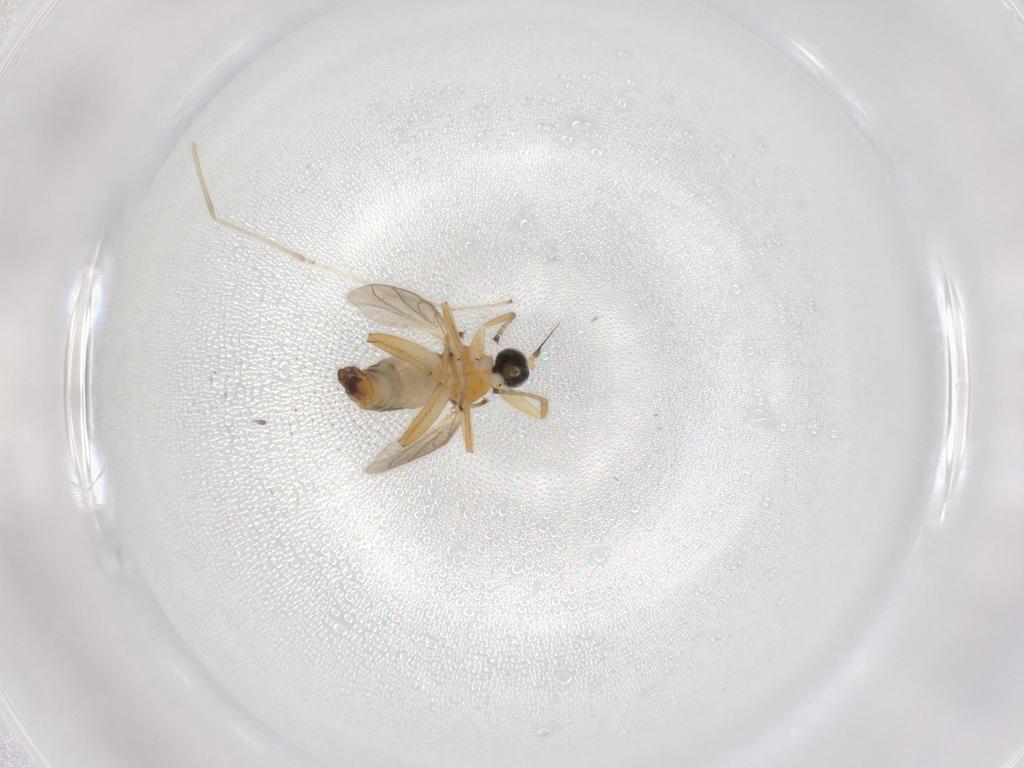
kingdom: Animalia
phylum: Arthropoda
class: Insecta
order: Diptera
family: Hybotidae
